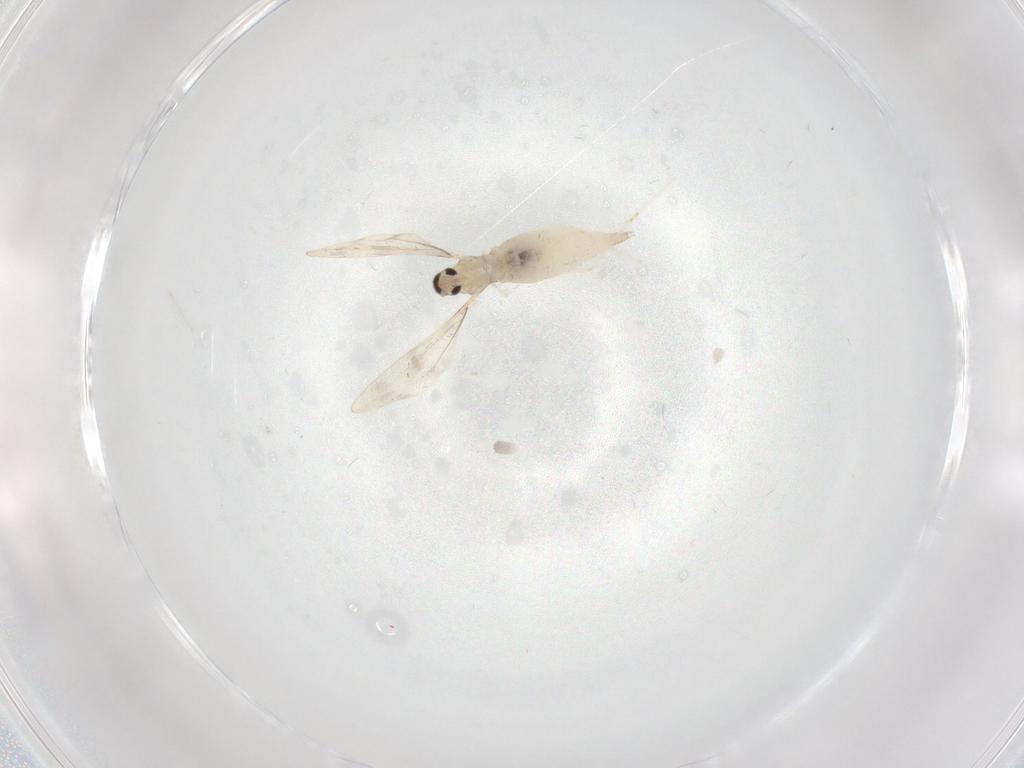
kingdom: Animalia
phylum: Arthropoda
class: Insecta
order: Diptera
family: Cecidomyiidae
